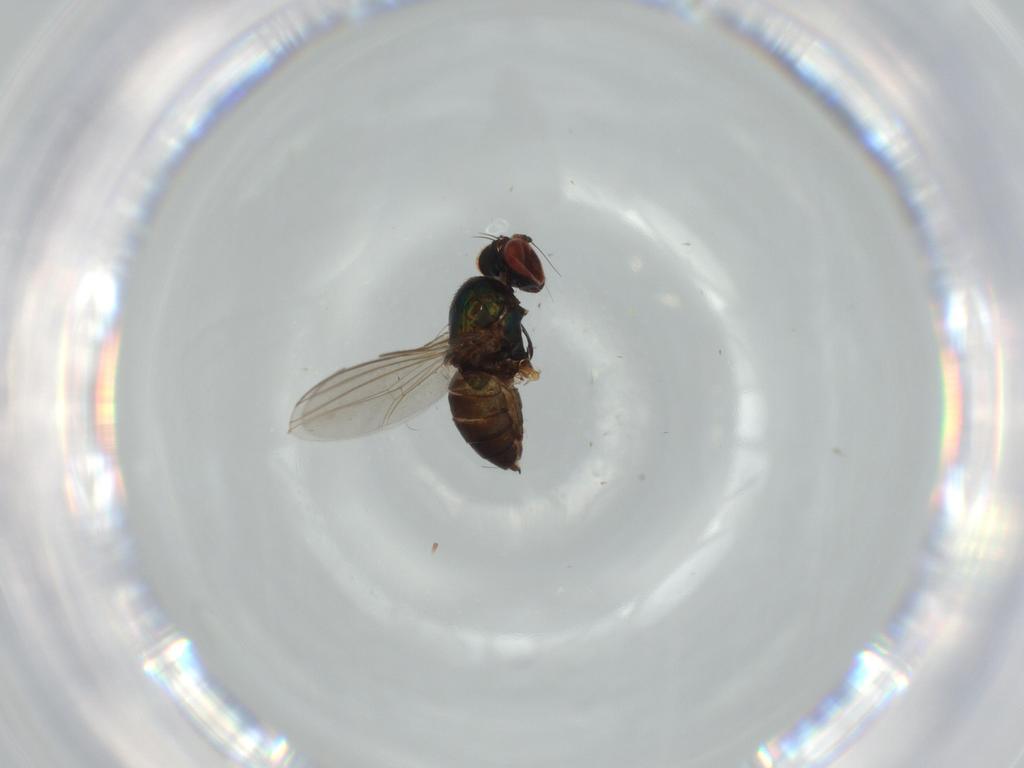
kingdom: Animalia
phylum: Arthropoda
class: Insecta
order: Diptera
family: Dolichopodidae
